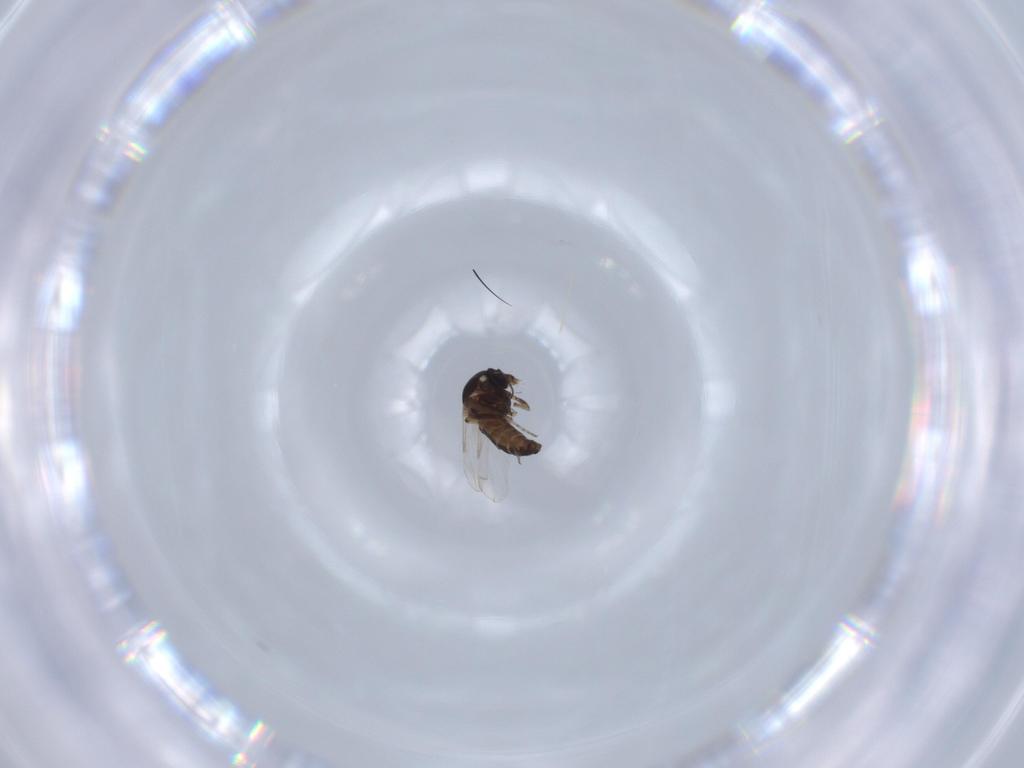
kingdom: Animalia
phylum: Arthropoda
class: Insecta
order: Diptera
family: Ceratopogonidae
